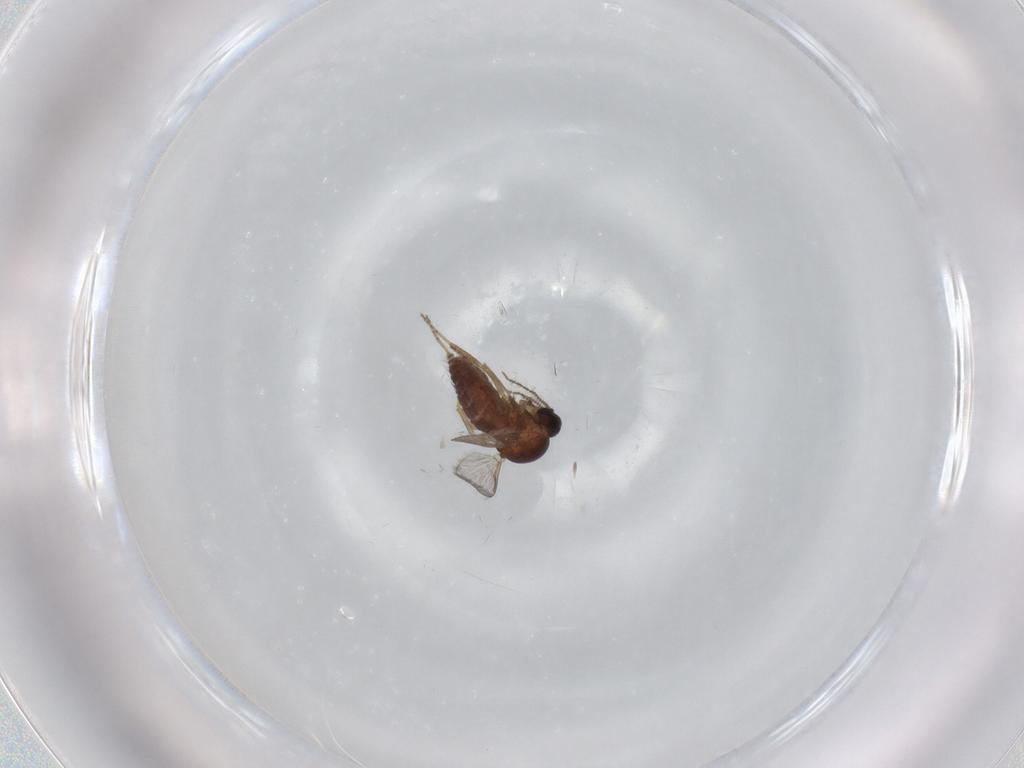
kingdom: Animalia
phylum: Arthropoda
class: Insecta
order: Diptera
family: Ceratopogonidae
